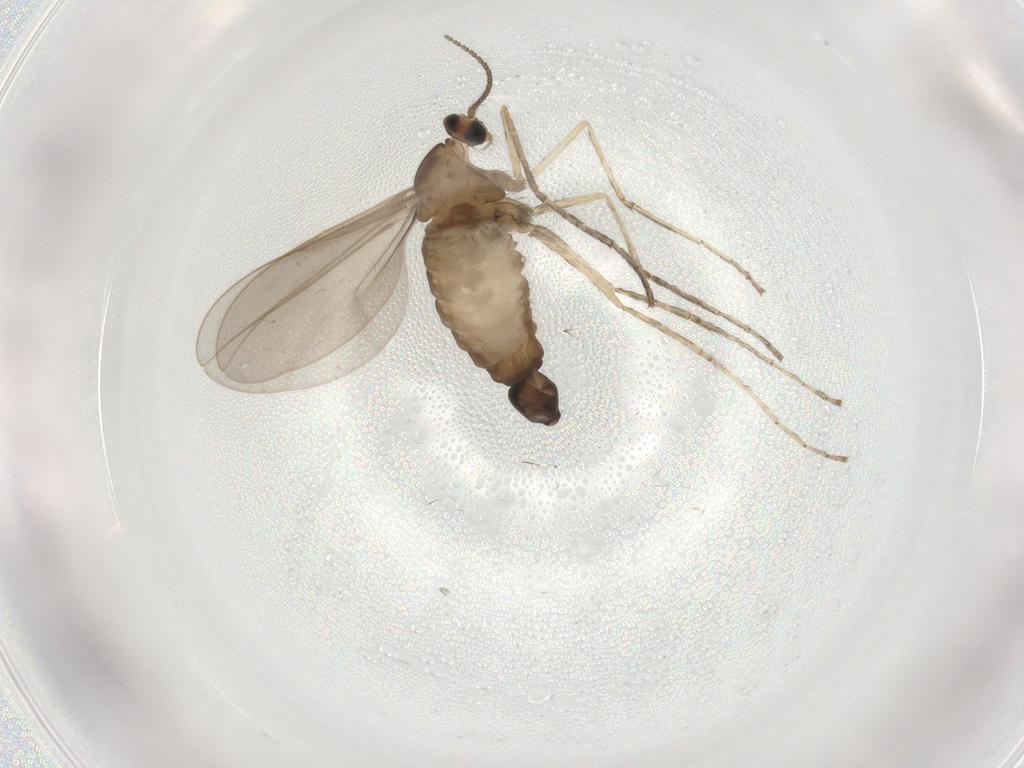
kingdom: Animalia
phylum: Arthropoda
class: Insecta
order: Diptera
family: Cecidomyiidae
